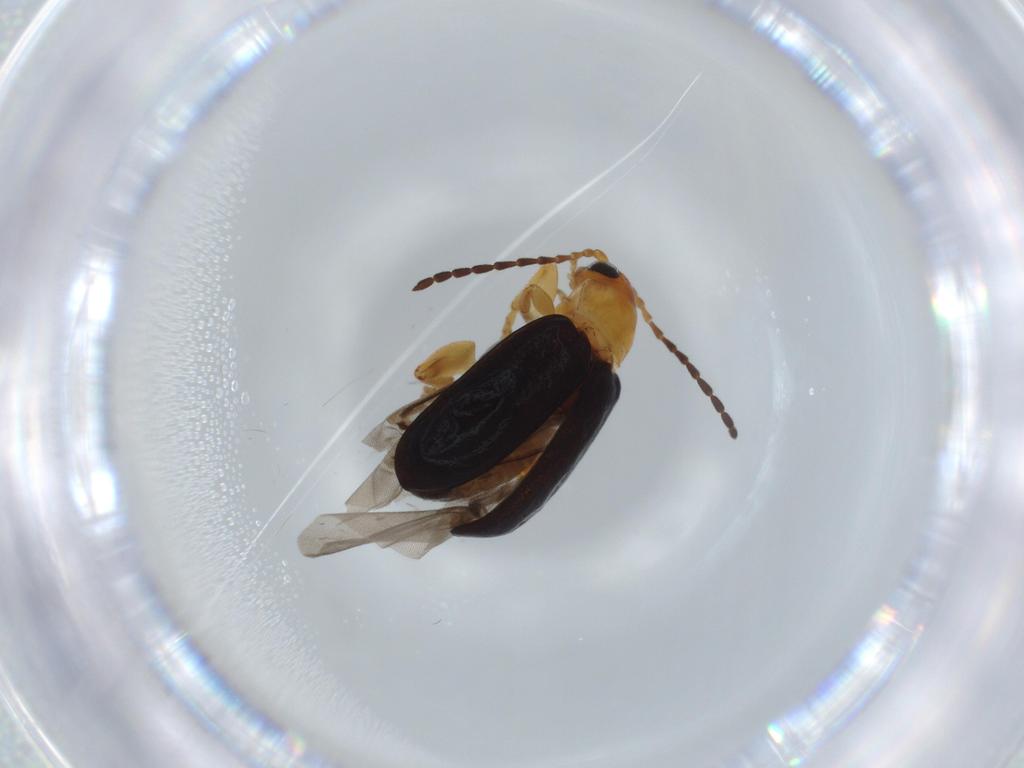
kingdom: Animalia
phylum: Arthropoda
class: Insecta
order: Coleoptera
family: Chrysomelidae
